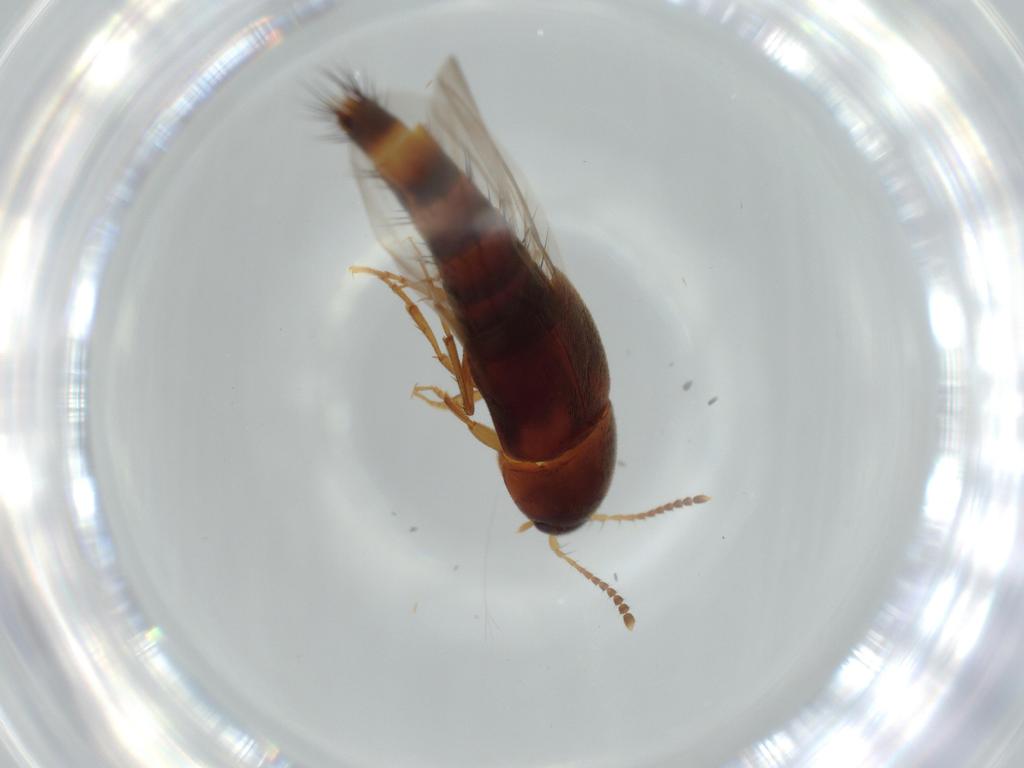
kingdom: Animalia
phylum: Arthropoda
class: Insecta
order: Coleoptera
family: Staphylinidae
